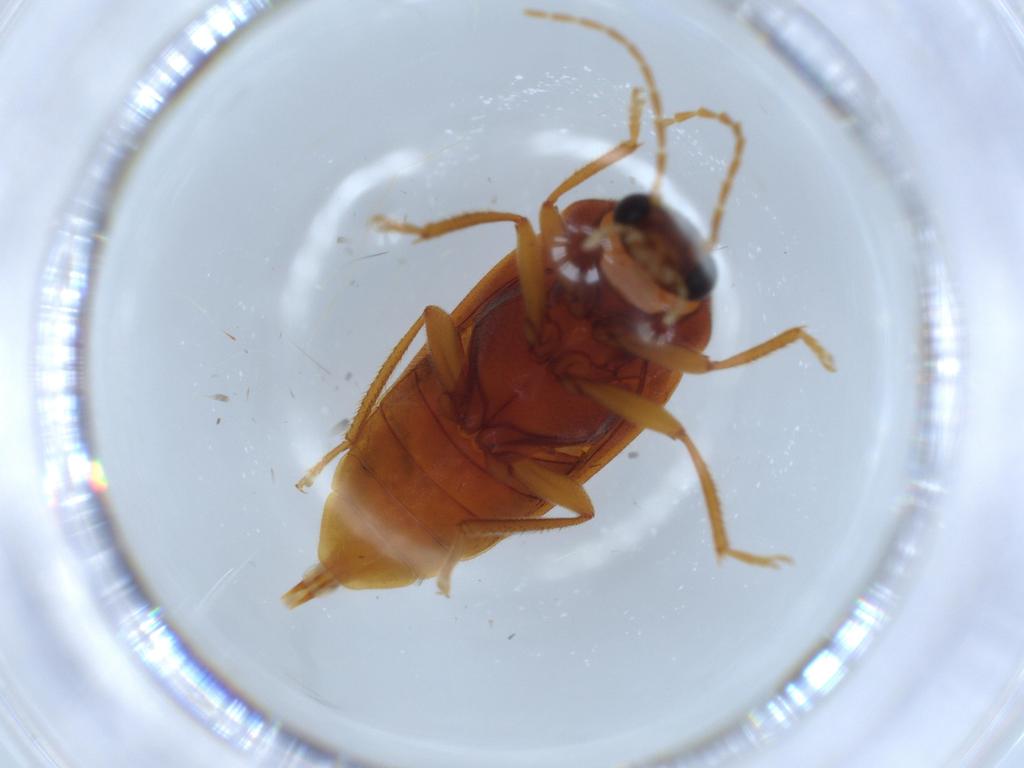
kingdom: Animalia
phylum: Arthropoda
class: Insecta
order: Coleoptera
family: Ptilodactylidae
